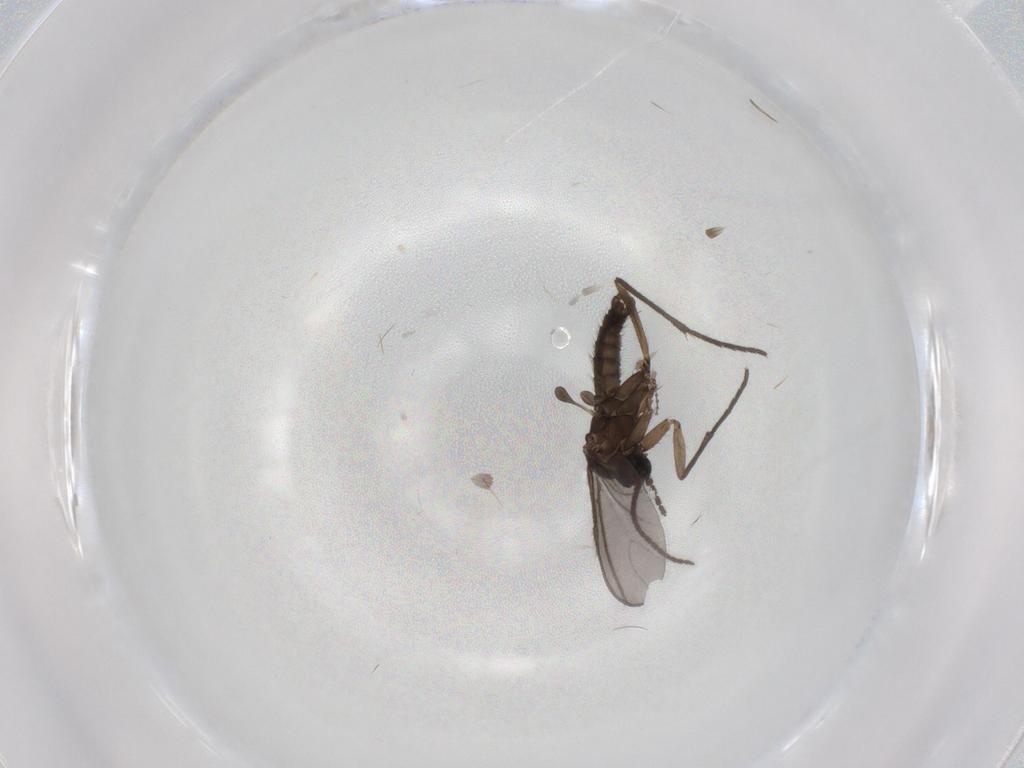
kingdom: Animalia
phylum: Arthropoda
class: Insecta
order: Diptera
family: Sciaridae
